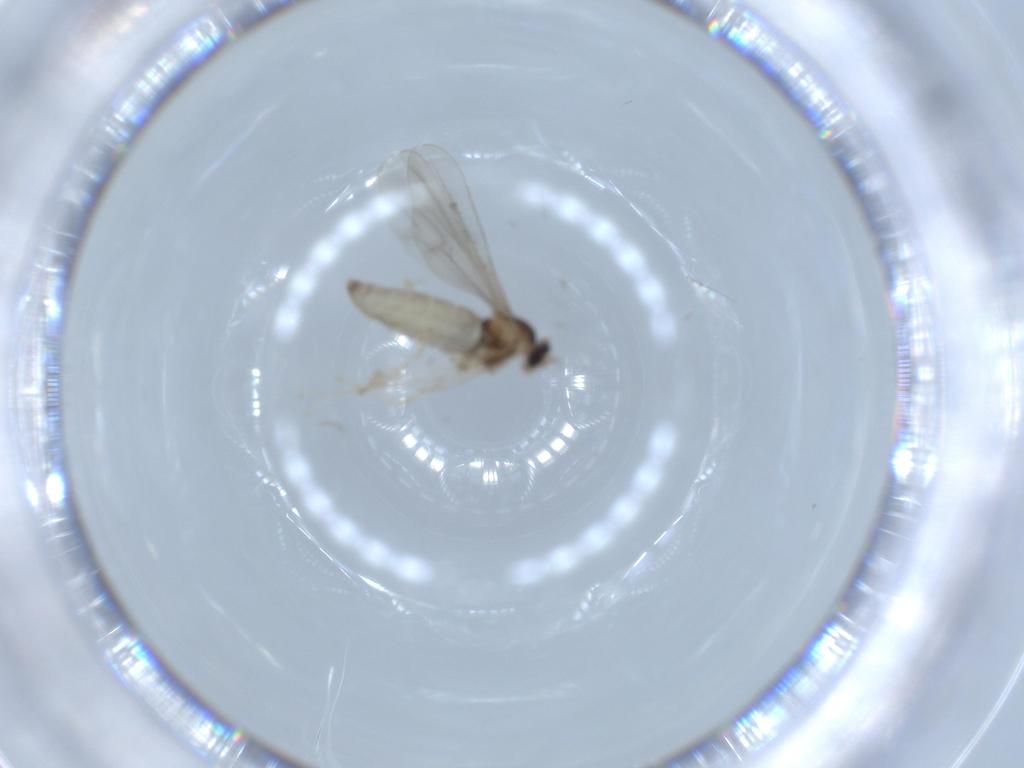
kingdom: Animalia
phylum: Arthropoda
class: Insecta
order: Diptera
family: Cecidomyiidae
